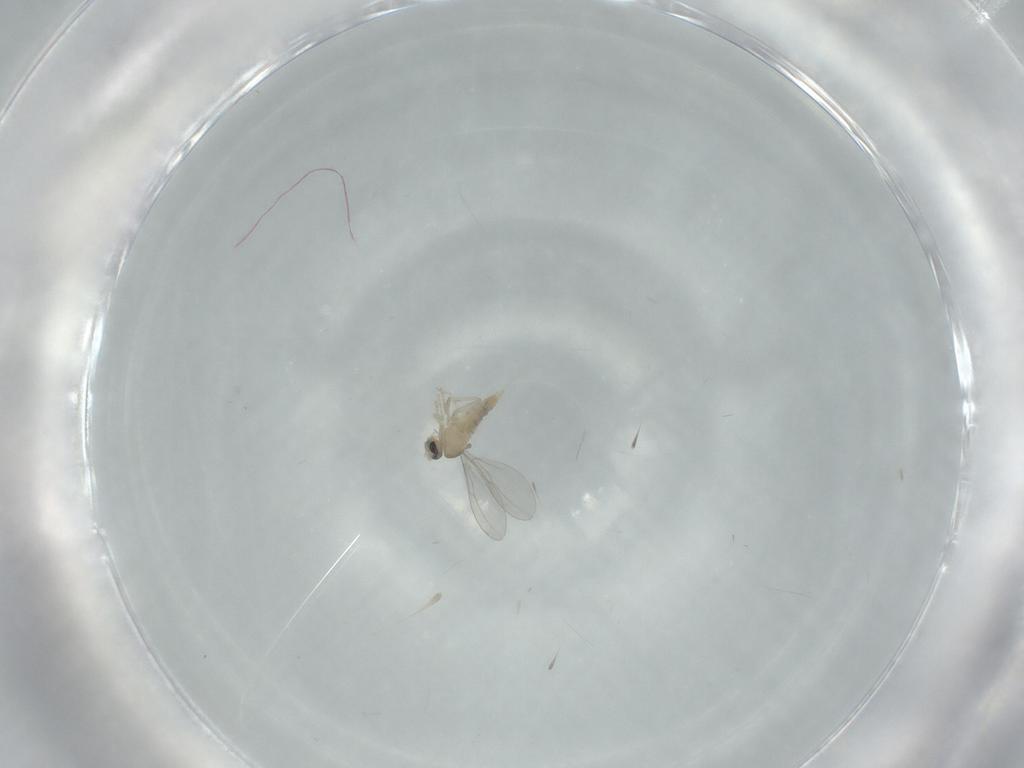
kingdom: Animalia
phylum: Arthropoda
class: Insecta
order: Diptera
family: Cecidomyiidae
